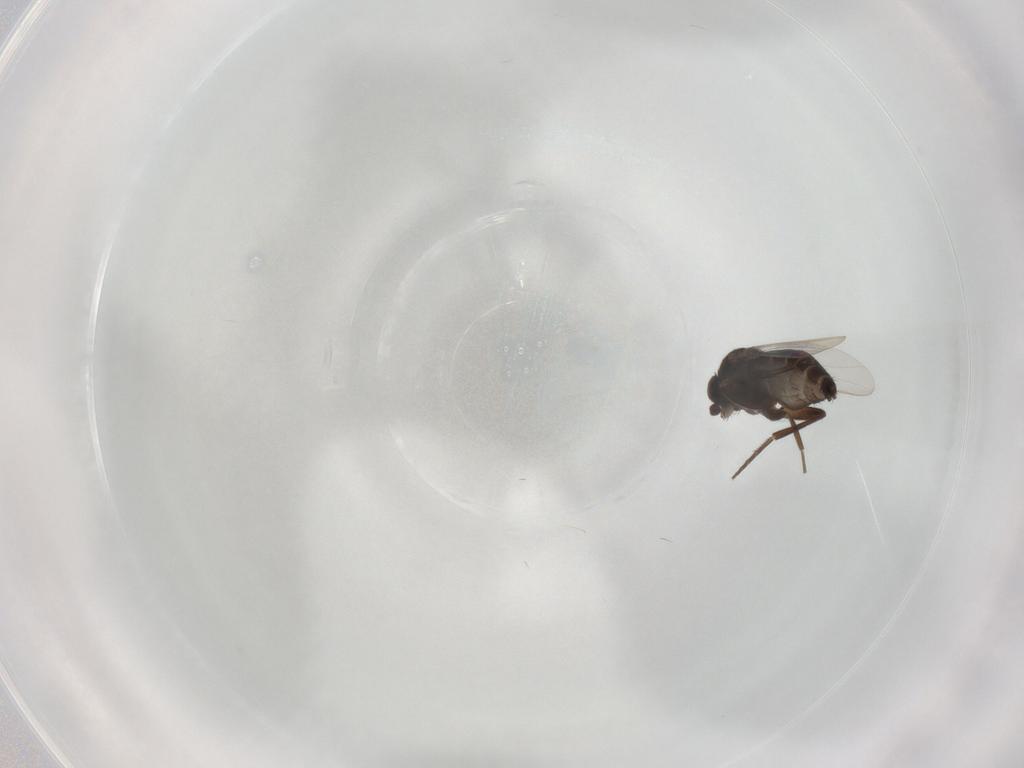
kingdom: Animalia
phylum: Arthropoda
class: Insecta
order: Diptera
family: Phoridae
